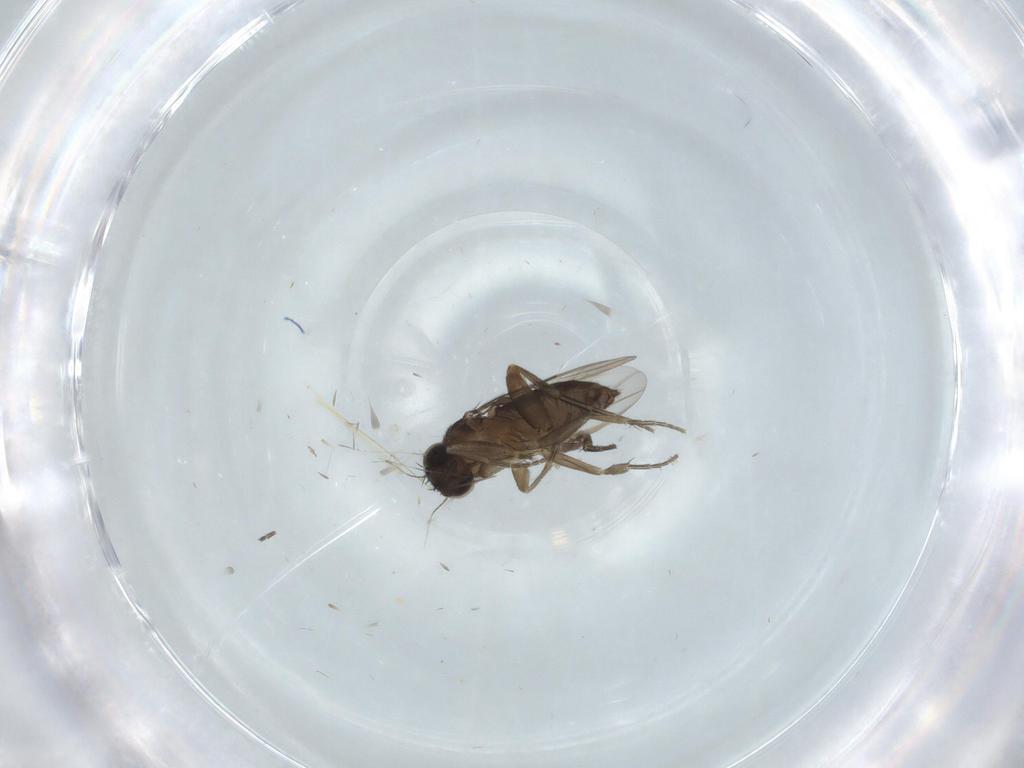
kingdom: Animalia
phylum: Arthropoda
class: Insecta
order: Diptera
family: Phoridae
